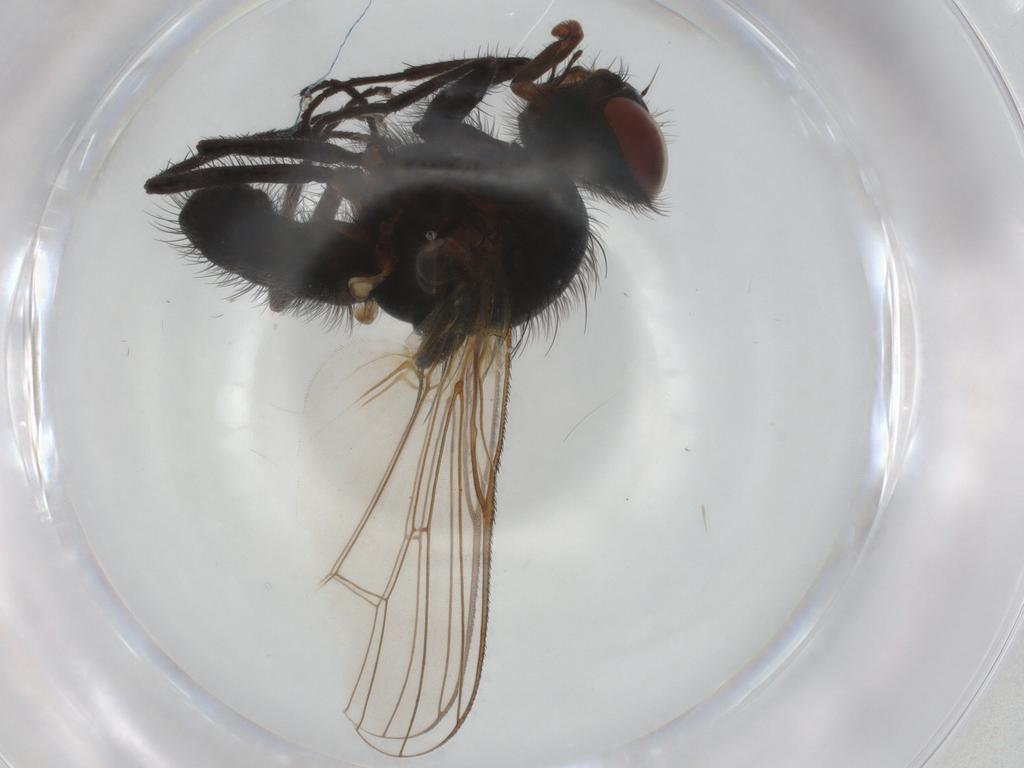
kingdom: Animalia
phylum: Arthropoda
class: Insecta
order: Diptera
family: Anthomyiidae
